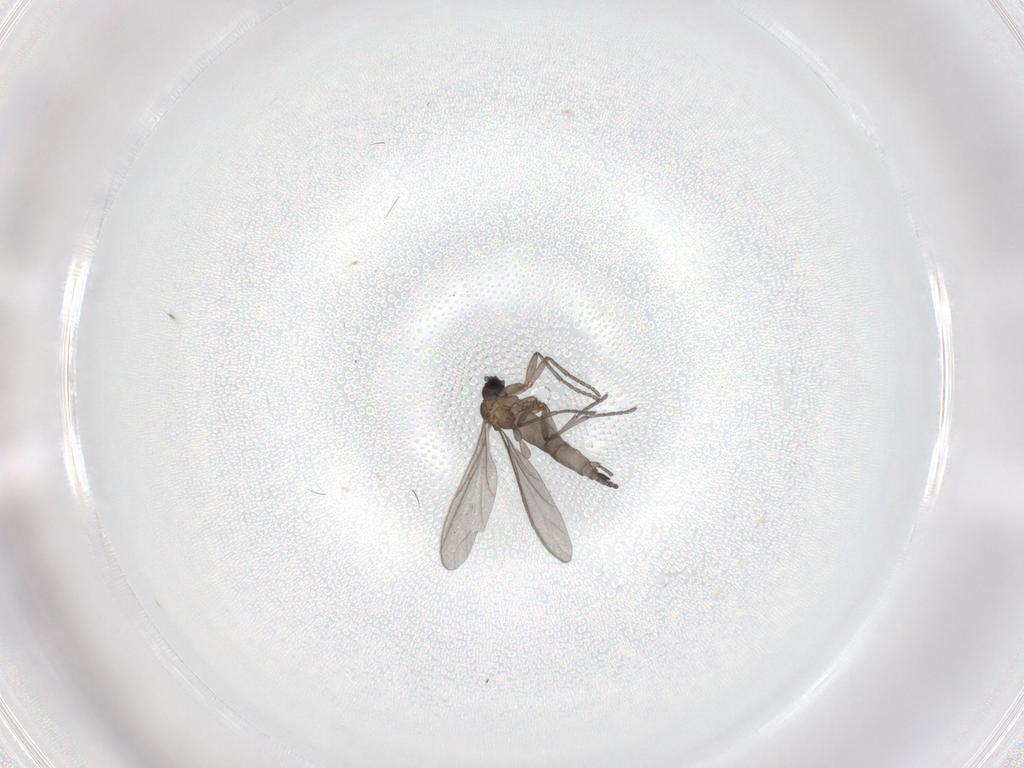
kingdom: Animalia
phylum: Arthropoda
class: Insecta
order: Diptera
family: Sciaridae
